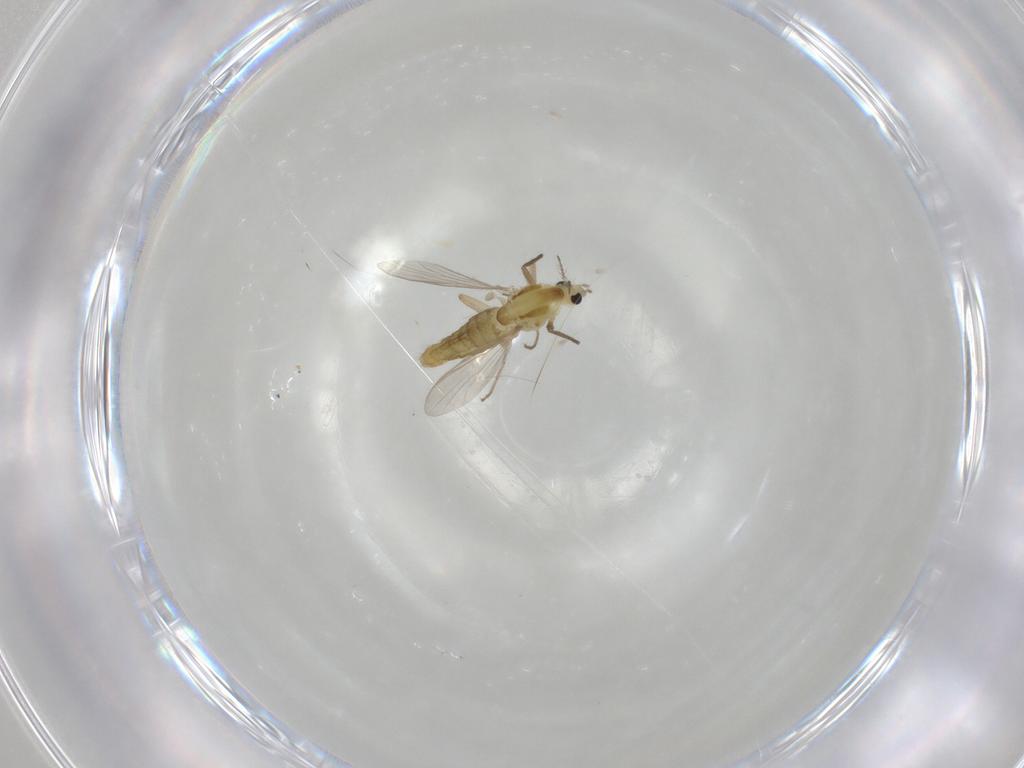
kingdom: Animalia
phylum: Arthropoda
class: Insecta
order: Diptera
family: Chironomidae
